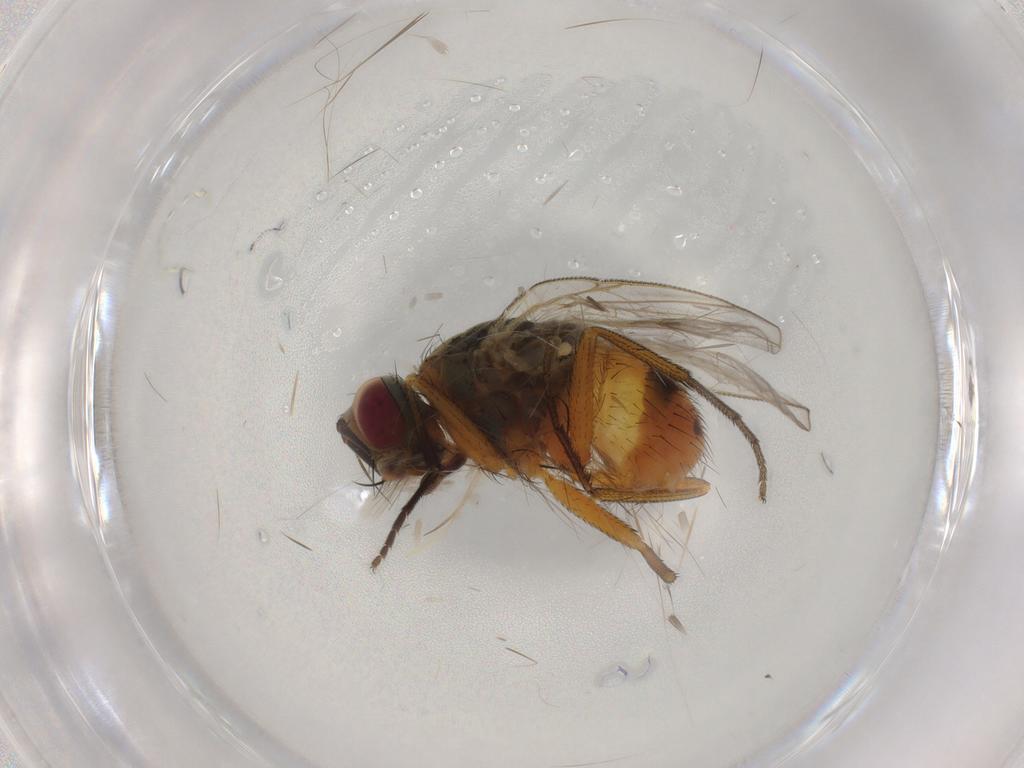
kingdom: Animalia
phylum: Arthropoda
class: Insecta
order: Diptera
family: Muscidae
